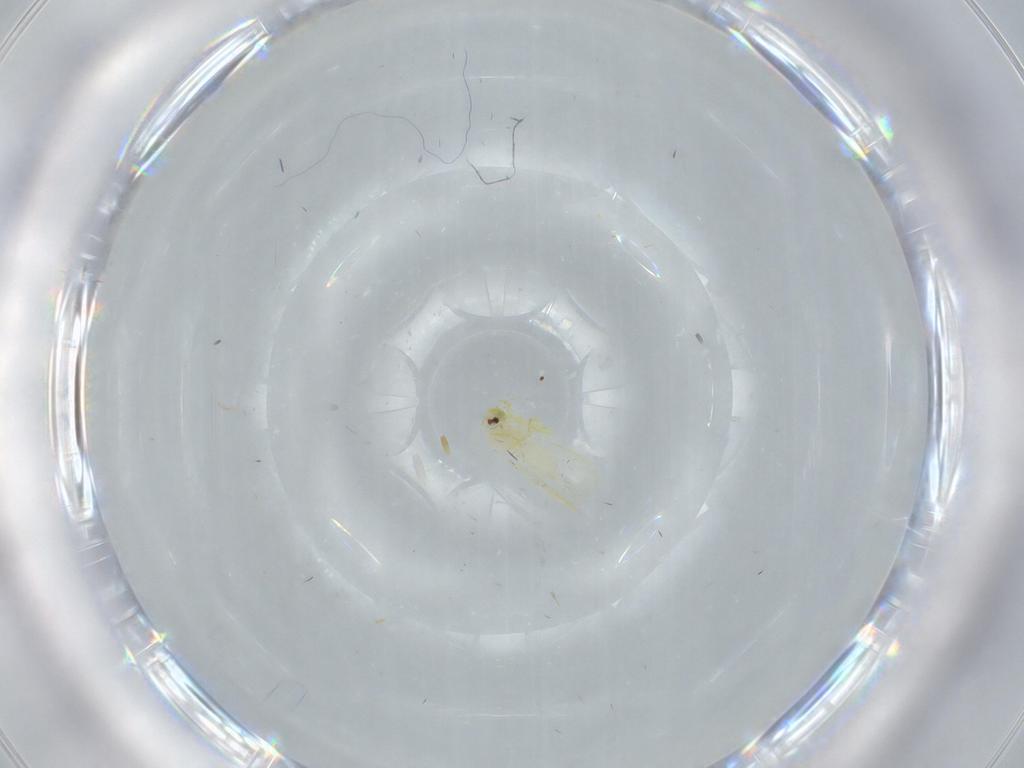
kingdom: Animalia
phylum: Arthropoda
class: Insecta
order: Hemiptera
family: Aleyrodidae
